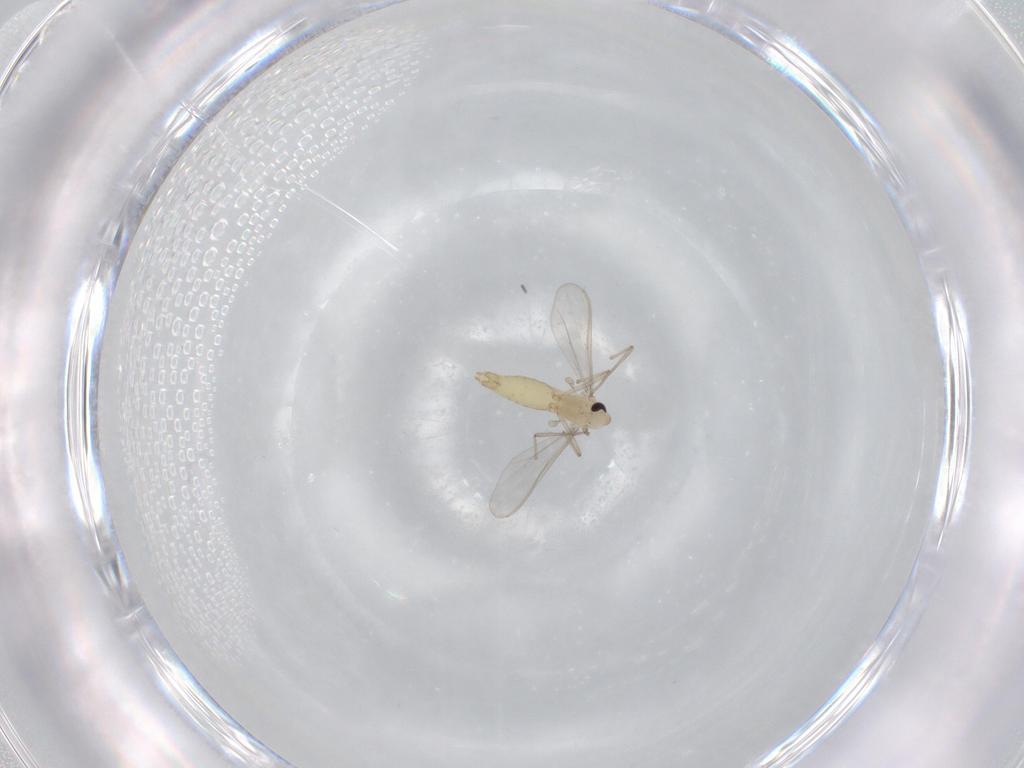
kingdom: Animalia
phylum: Arthropoda
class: Insecta
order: Diptera
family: Chironomidae
